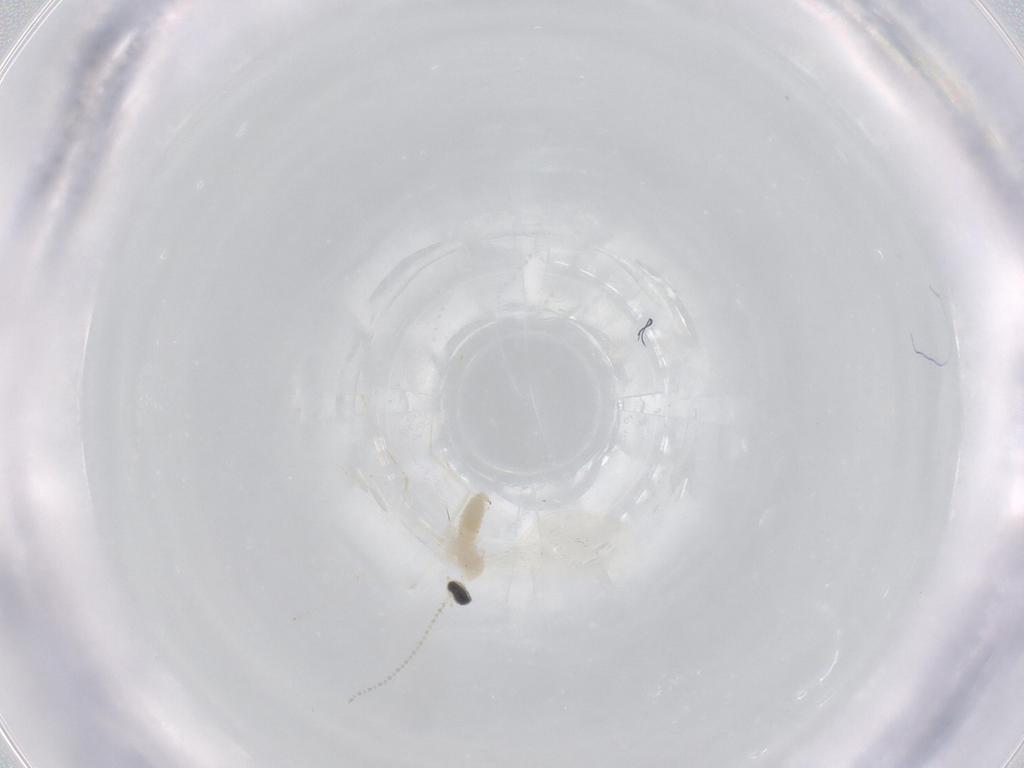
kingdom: Animalia
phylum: Arthropoda
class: Insecta
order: Diptera
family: Cecidomyiidae
